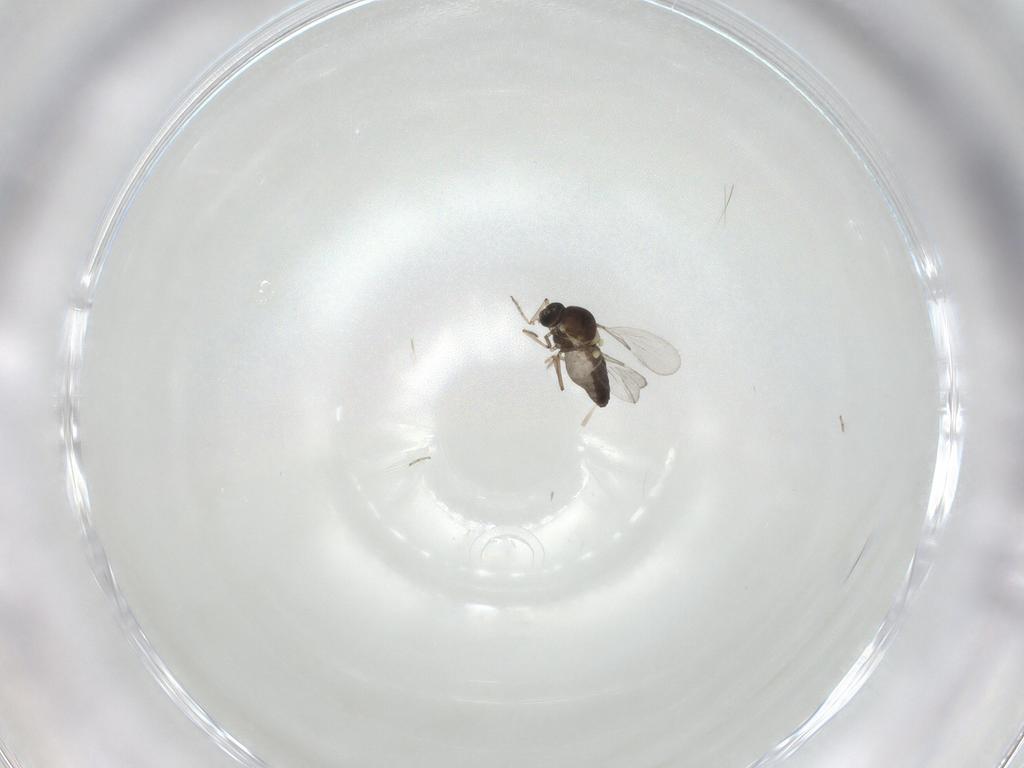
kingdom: Animalia
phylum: Arthropoda
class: Insecta
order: Diptera
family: Ceratopogonidae
